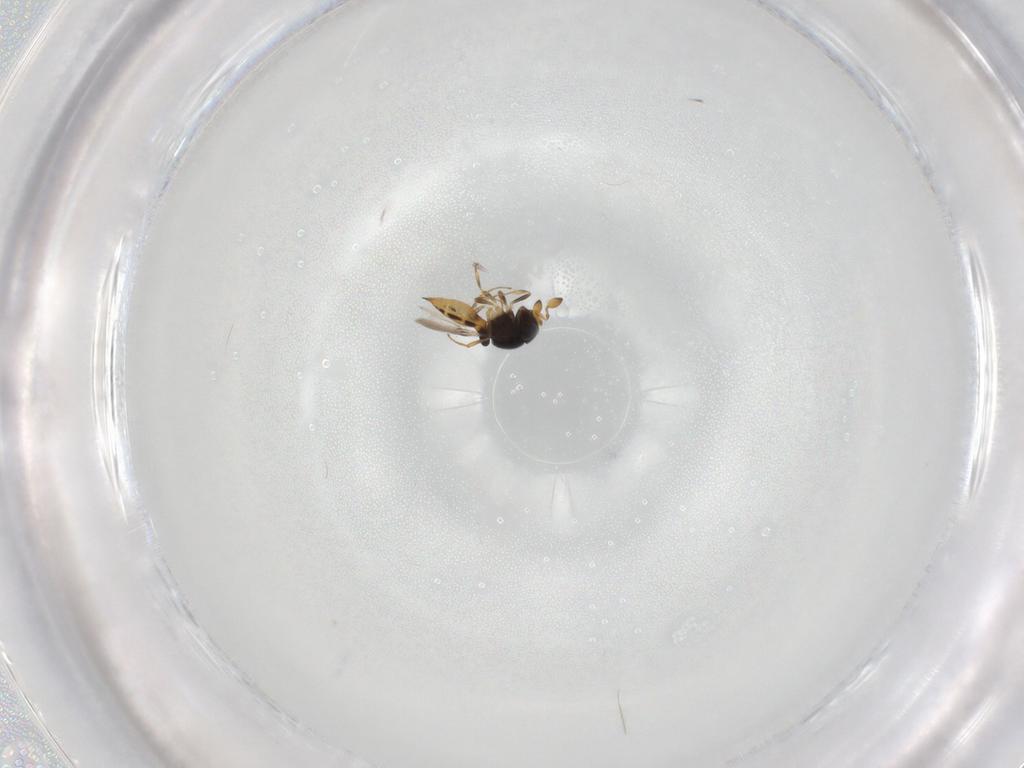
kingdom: Animalia
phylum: Arthropoda
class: Insecta
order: Hymenoptera
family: Scelionidae
